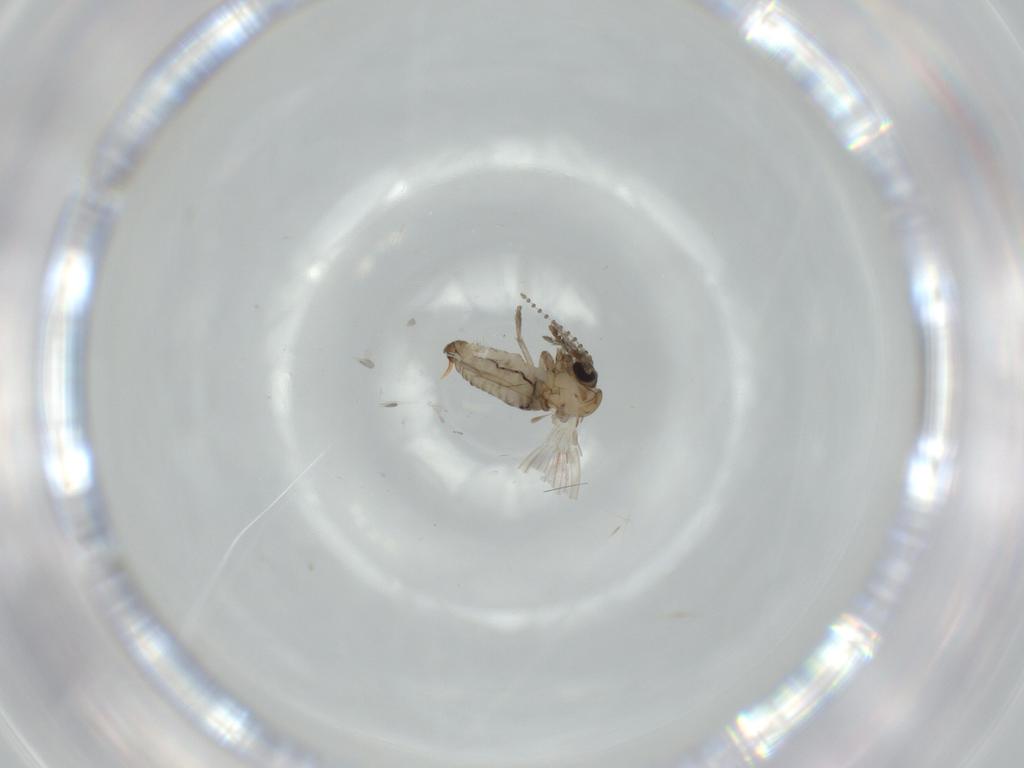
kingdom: Animalia
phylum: Arthropoda
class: Insecta
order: Diptera
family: Psychodidae
